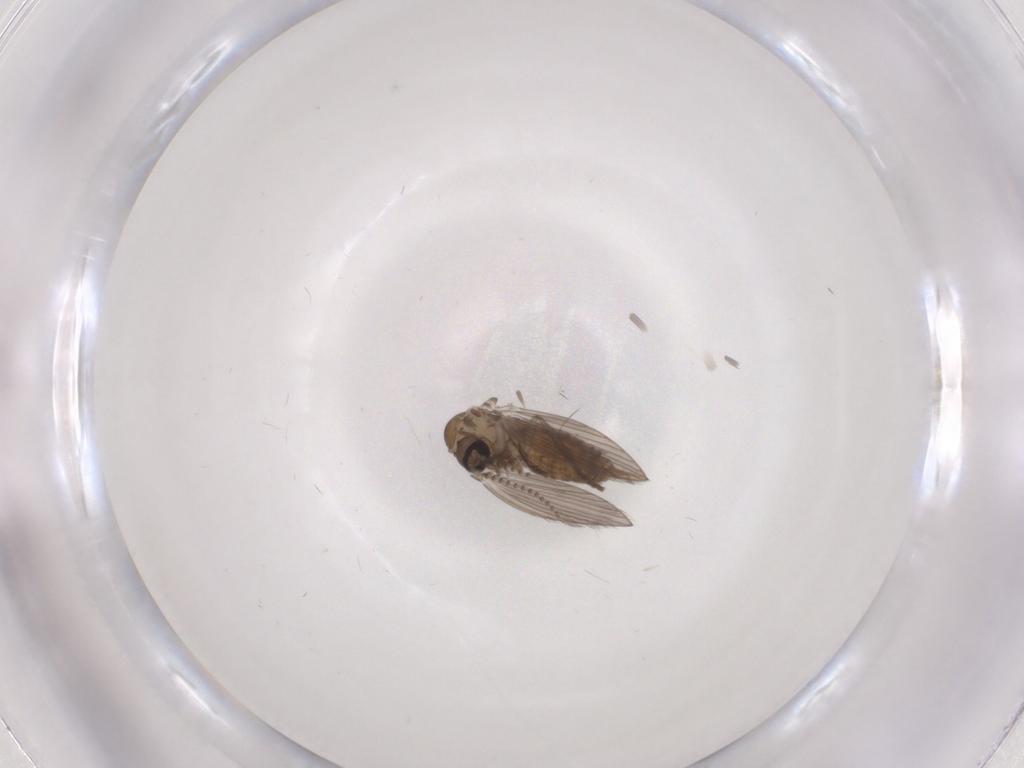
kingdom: Animalia
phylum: Arthropoda
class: Insecta
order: Diptera
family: Psychodidae
